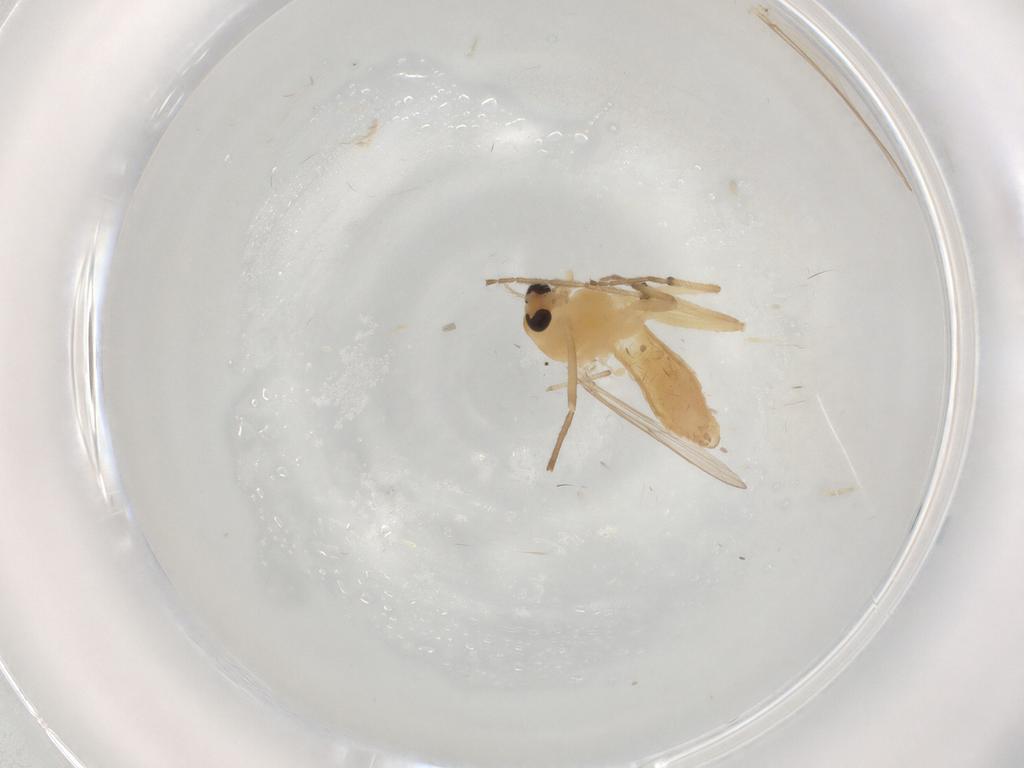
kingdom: Animalia
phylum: Arthropoda
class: Insecta
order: Diptera
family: Chironomidae
